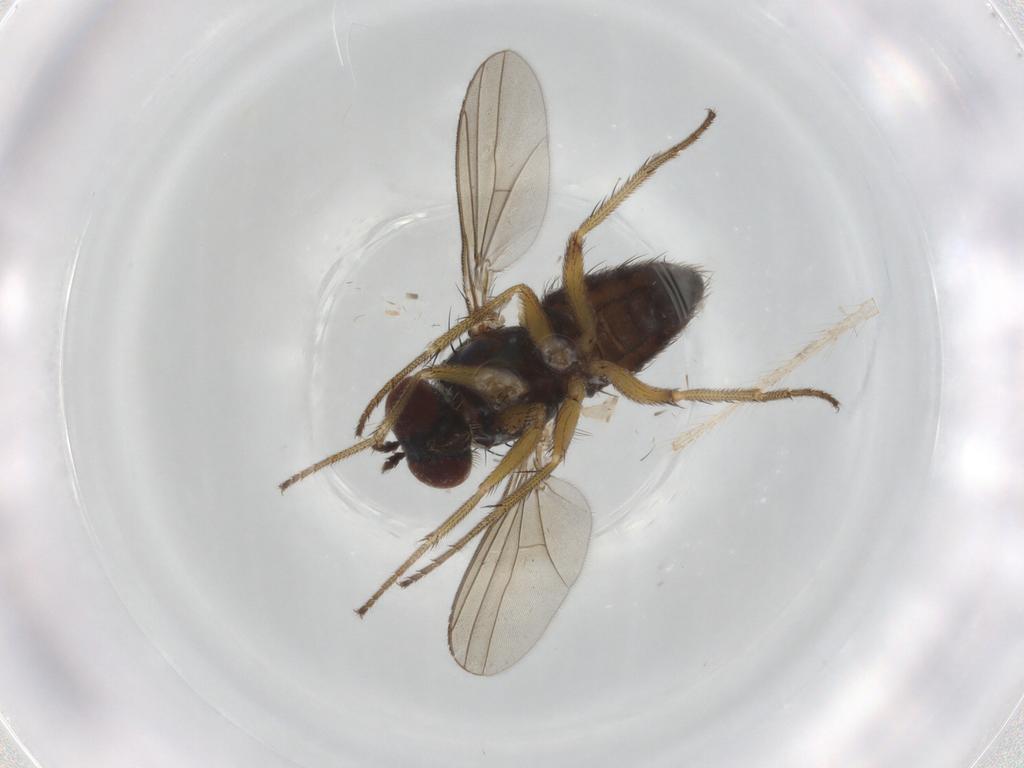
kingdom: Animalia
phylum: Arthropoda
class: Insecta
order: Diptera
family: Dolichopodidae
